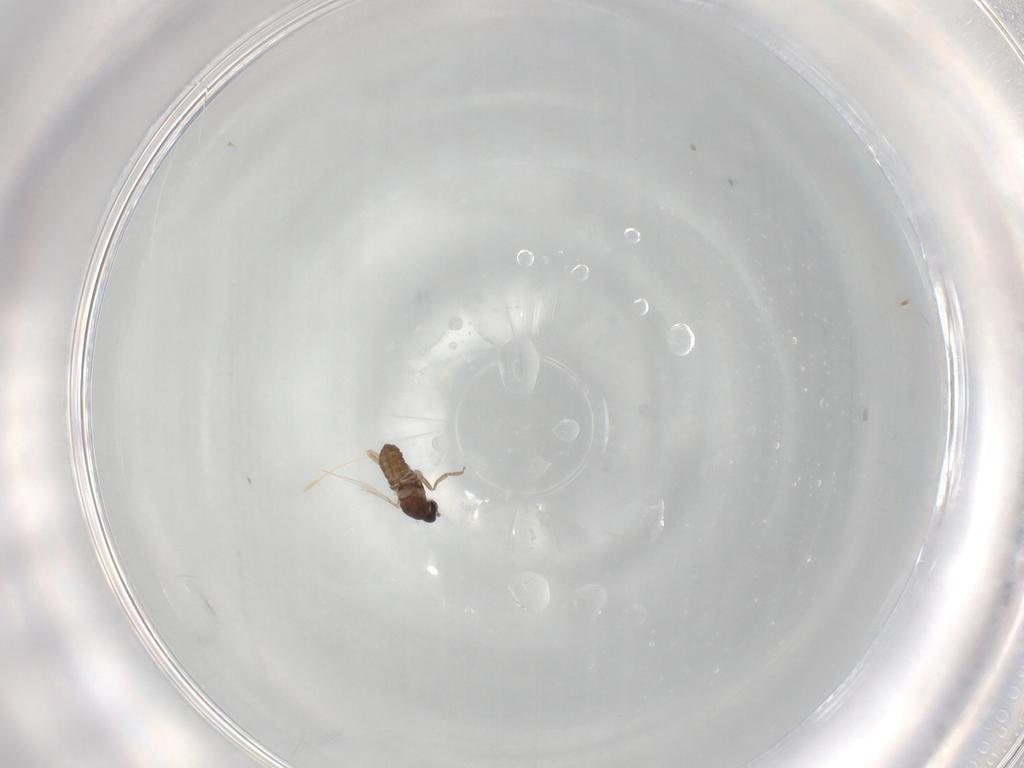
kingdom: Animalia
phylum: Arthropoda
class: Insecta
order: Diptera
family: Cecidomyiidae
